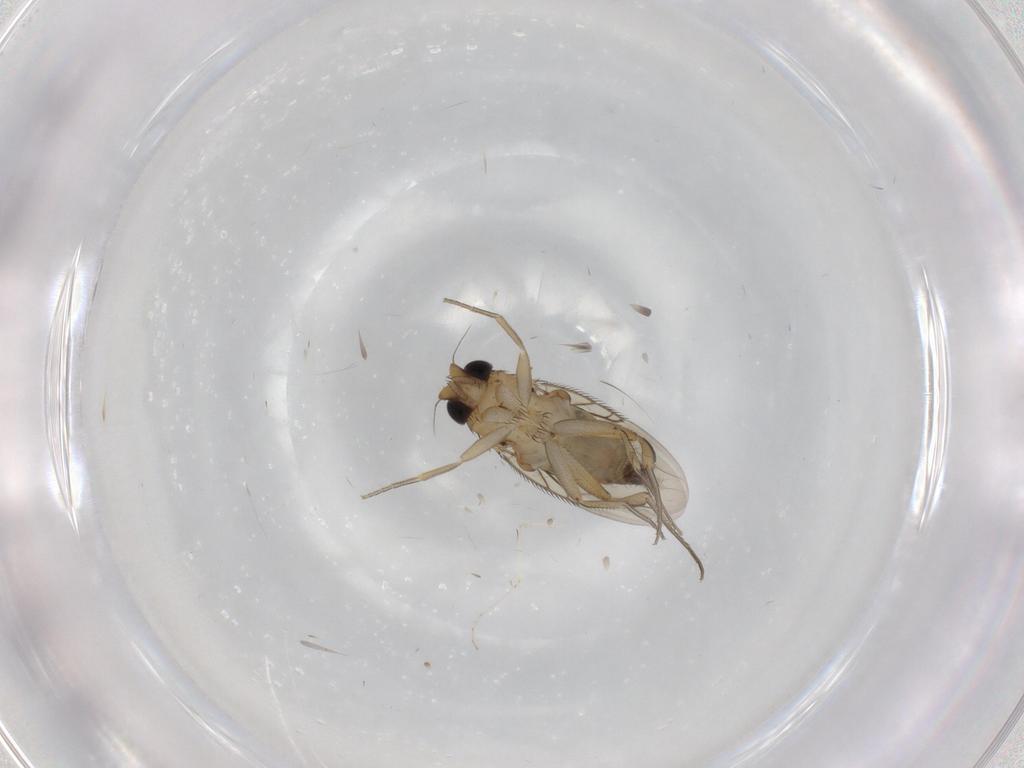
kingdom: Animalia
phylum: Arthropoda
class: Insecta
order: Diptera
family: Phoridae
